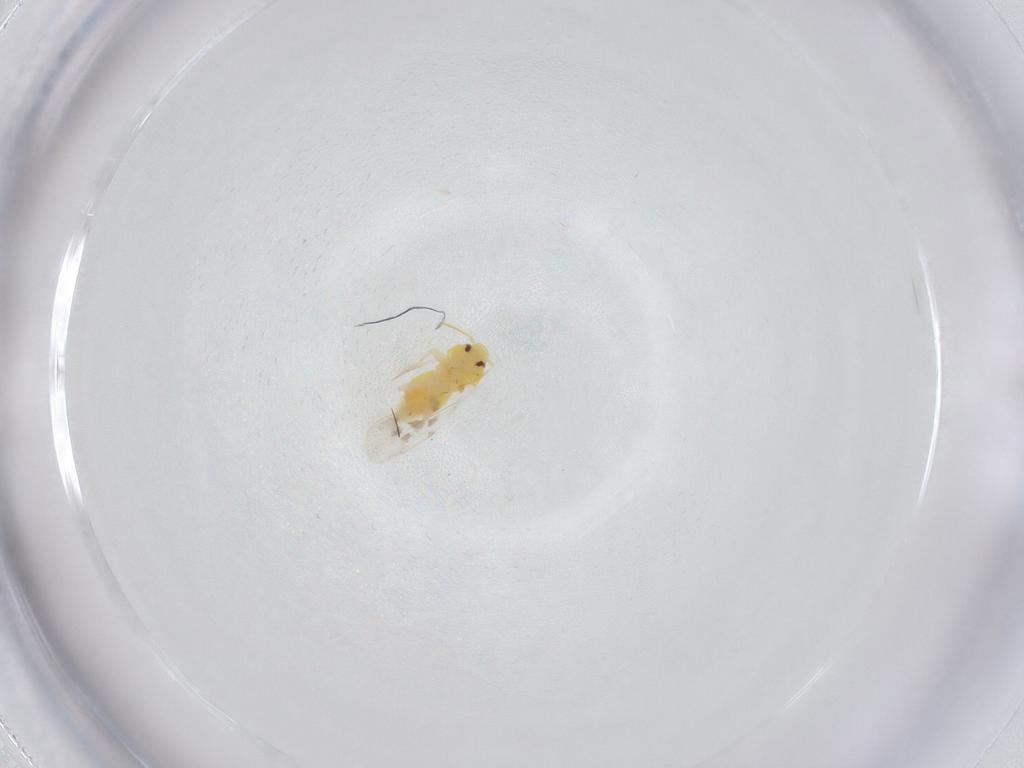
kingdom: Animalia
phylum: Arthropoda
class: Insecta
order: Hemiptera
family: Aleyrodidae
